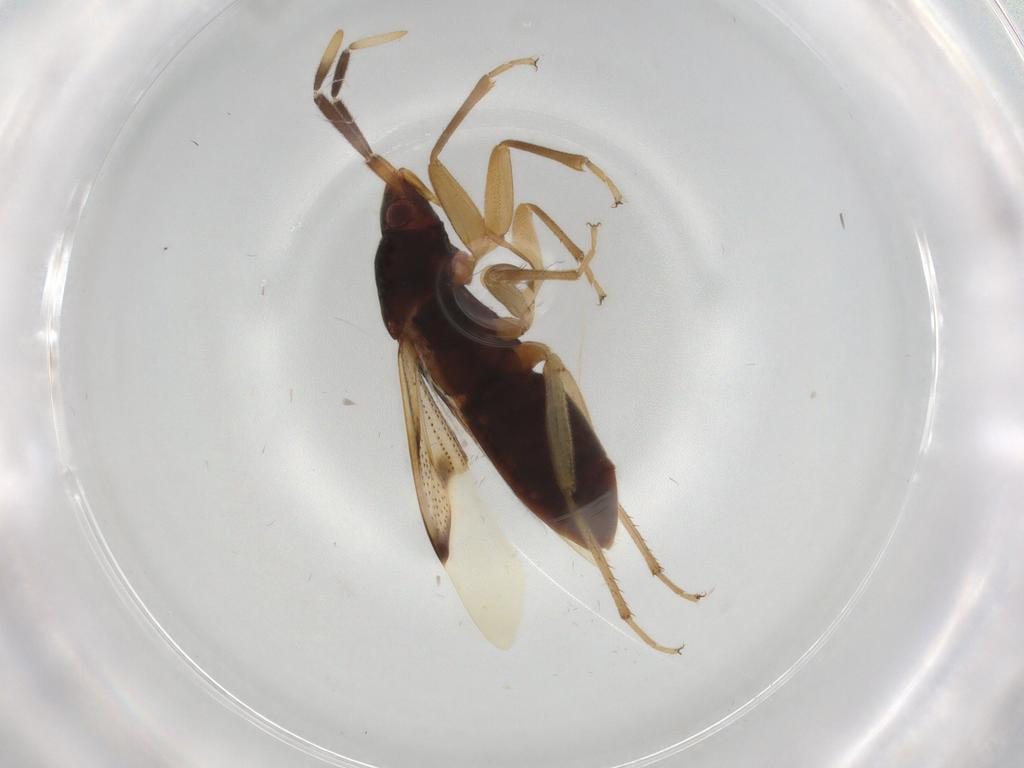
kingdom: Animalia
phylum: Arthropoda
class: Insecta
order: Hemiptera
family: Rhyparochromidae
